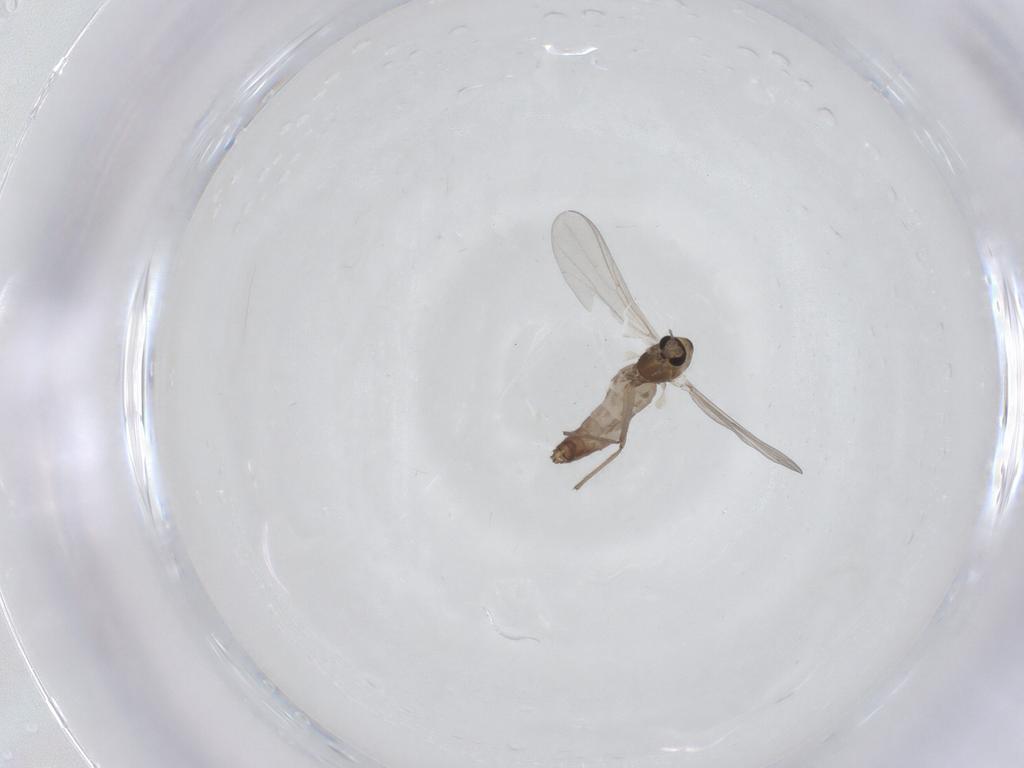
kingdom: Animalia
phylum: Arthropoda
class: Insecta
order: Diptera
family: Chironomidae
